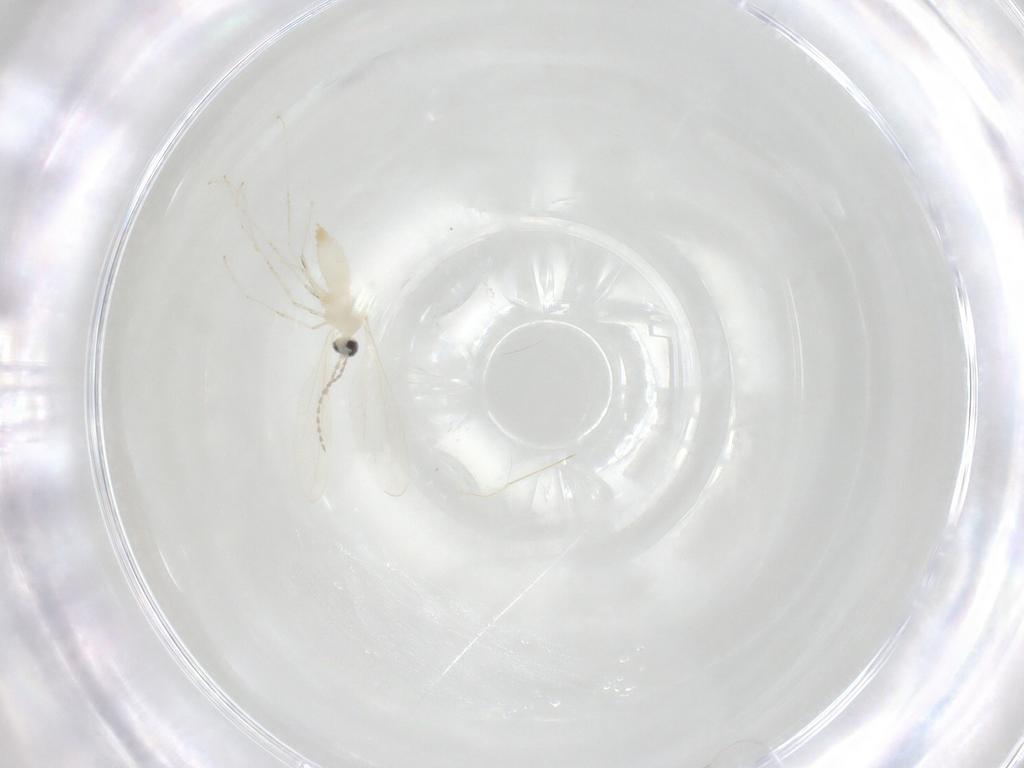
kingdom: Animalia
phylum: Arthropoda
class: Insecta
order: Diptera
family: Cecidomyiidae
